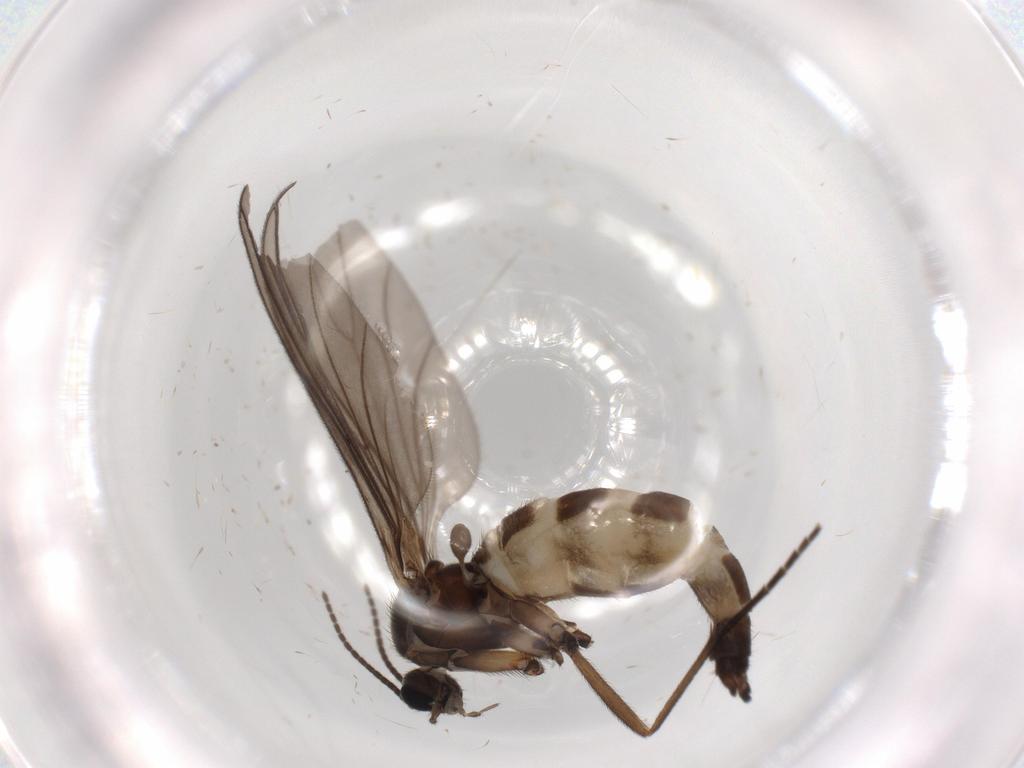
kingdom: Animalia
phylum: Arthropoda
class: Insecta
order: Diptera
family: Sciaridae
